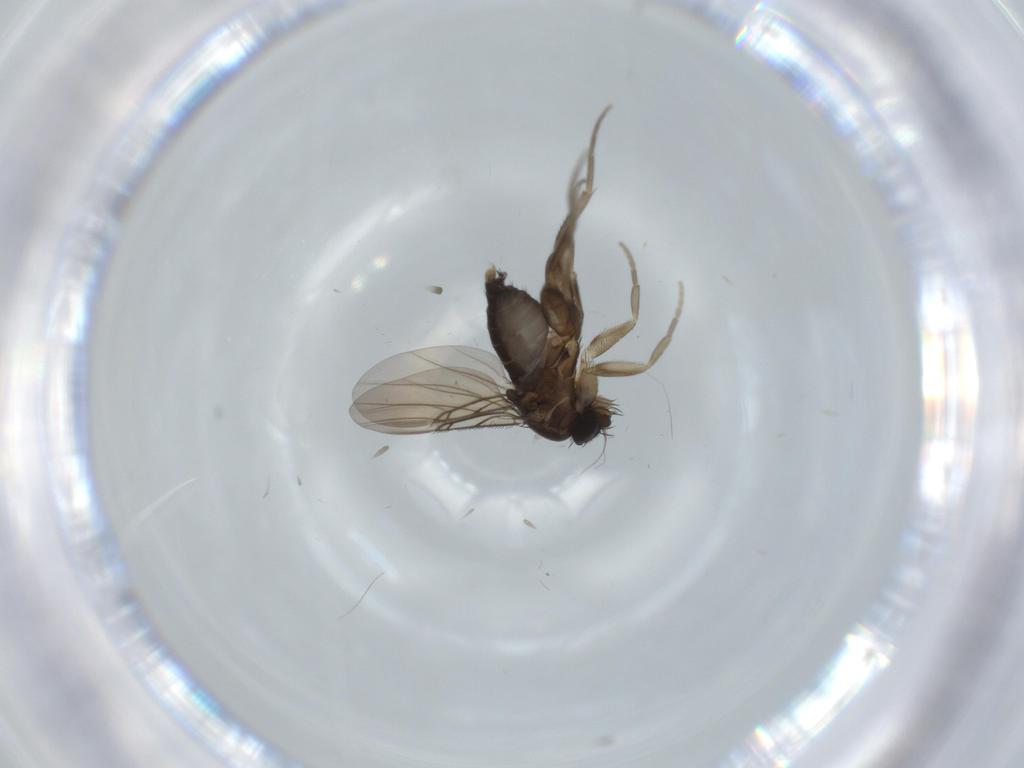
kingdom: Animalia
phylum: Arthropoda
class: Insecta
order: Diptera
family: Phoridae
